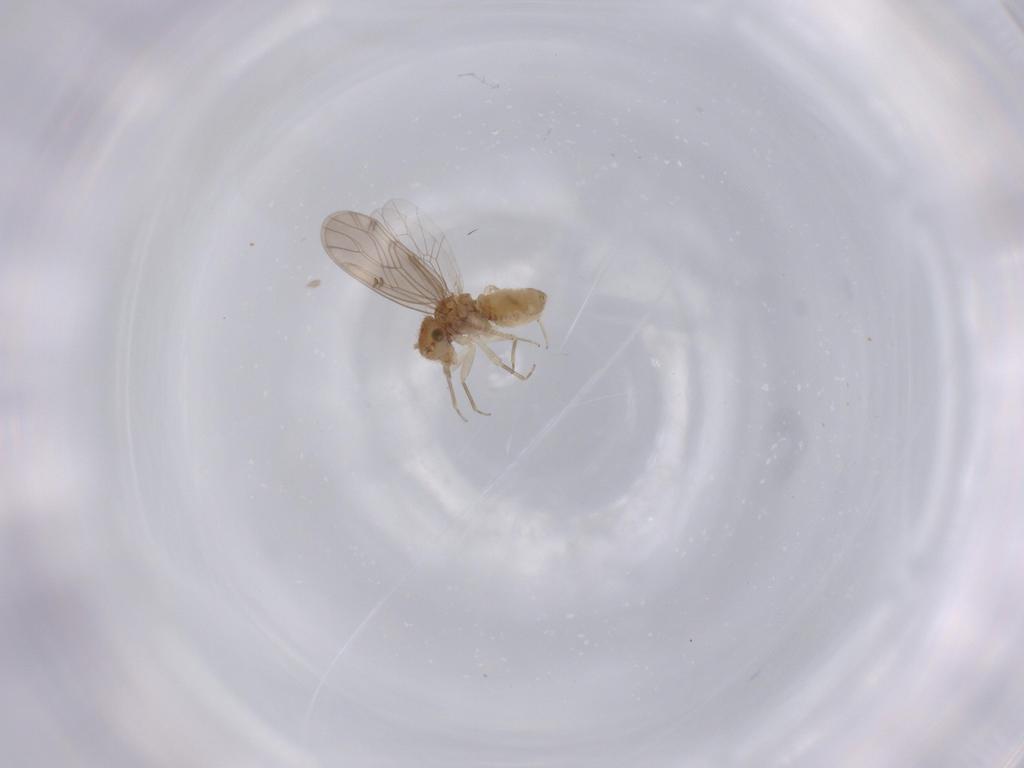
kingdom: Animalia
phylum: Arthropoda
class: Insecta
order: Psocodea
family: Ectopsocidae
